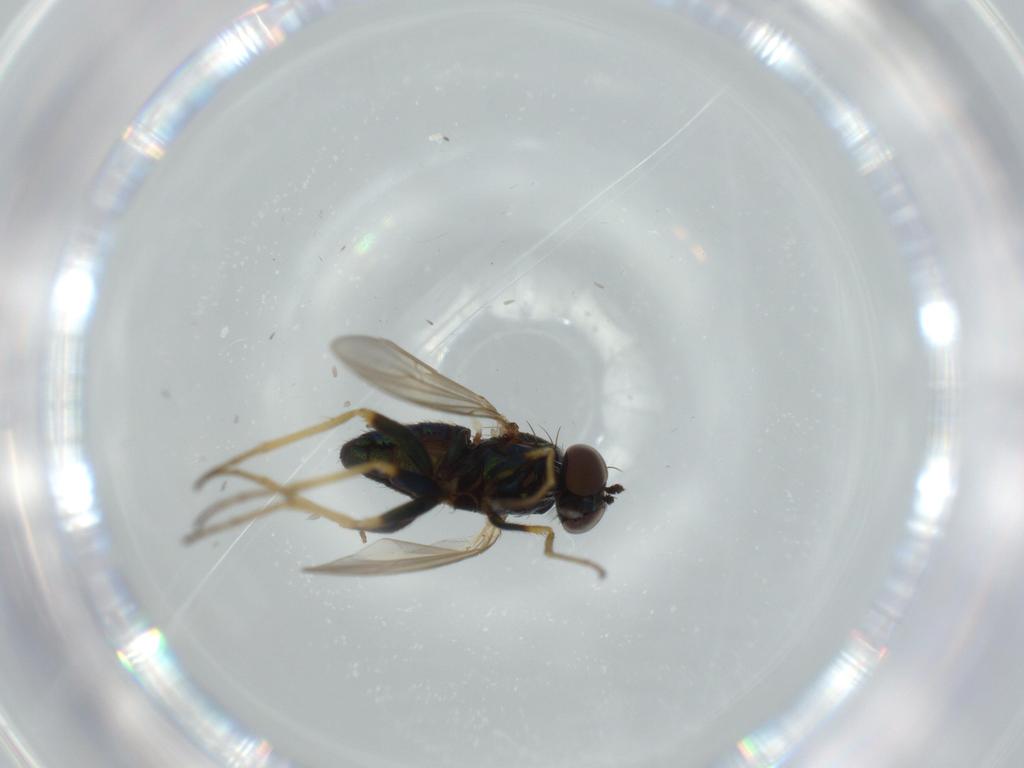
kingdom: Animalia
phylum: Arthropoda
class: Insecta
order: Diptera
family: Dolichopodidae
